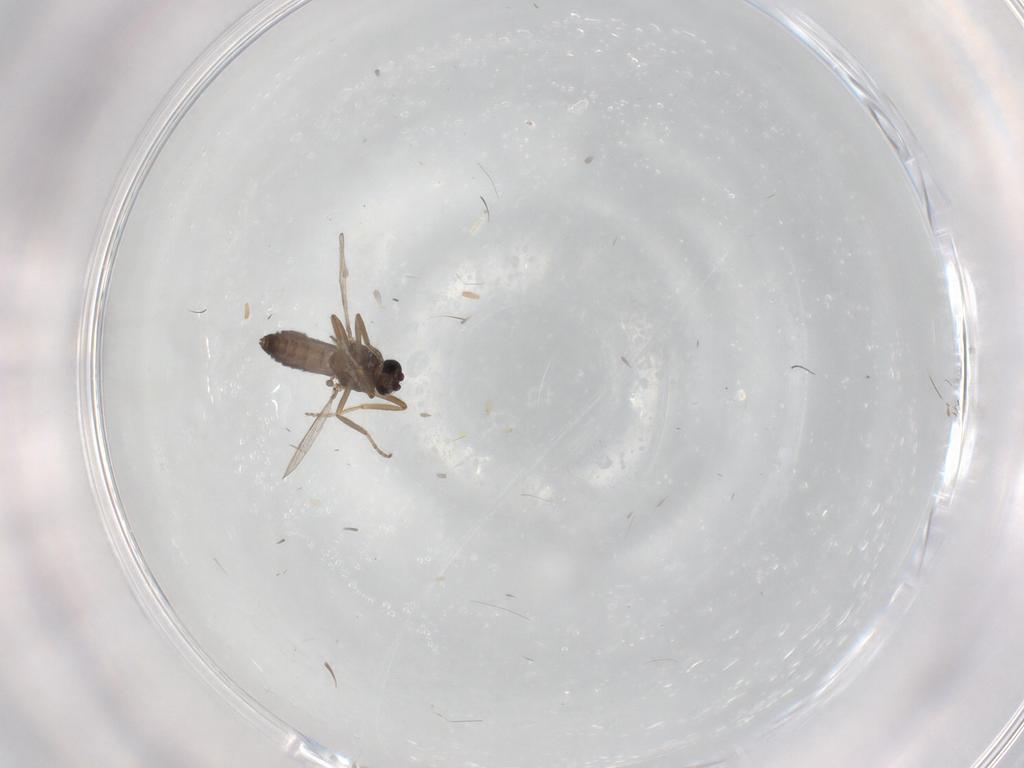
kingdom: Animalia
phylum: Arthropoda
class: Insecta
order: Diptera
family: Ceratopogonidae
